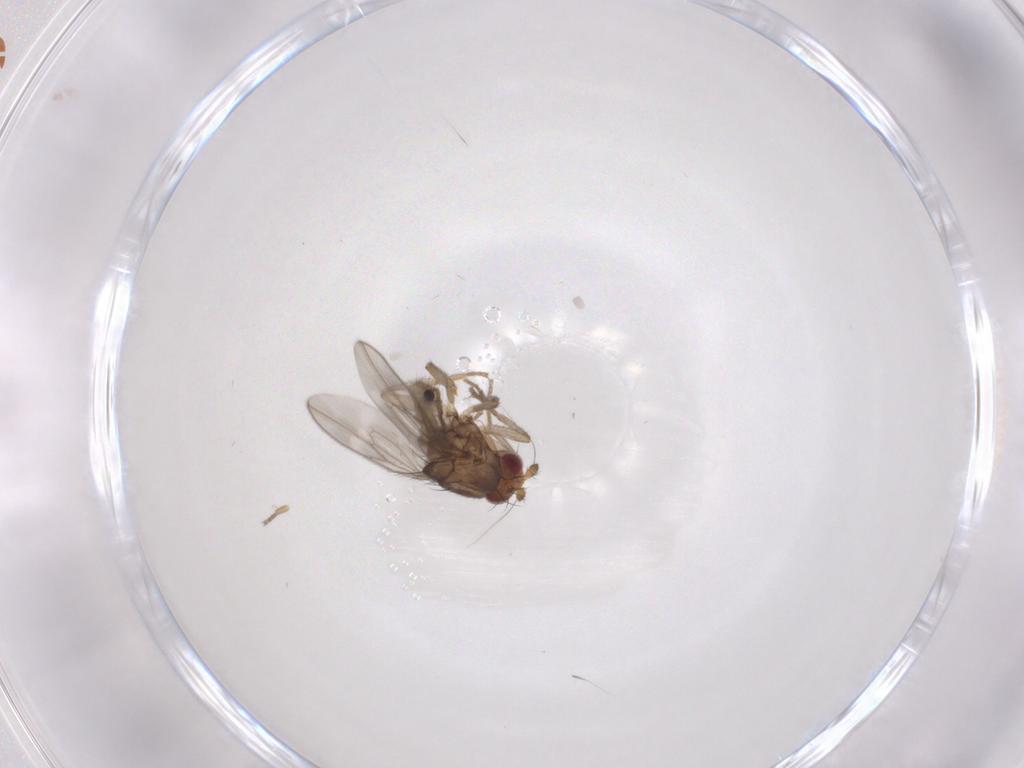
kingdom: Animalia
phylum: Arthropoda
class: Insecta
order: Diptera
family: Sphaeroceridae
